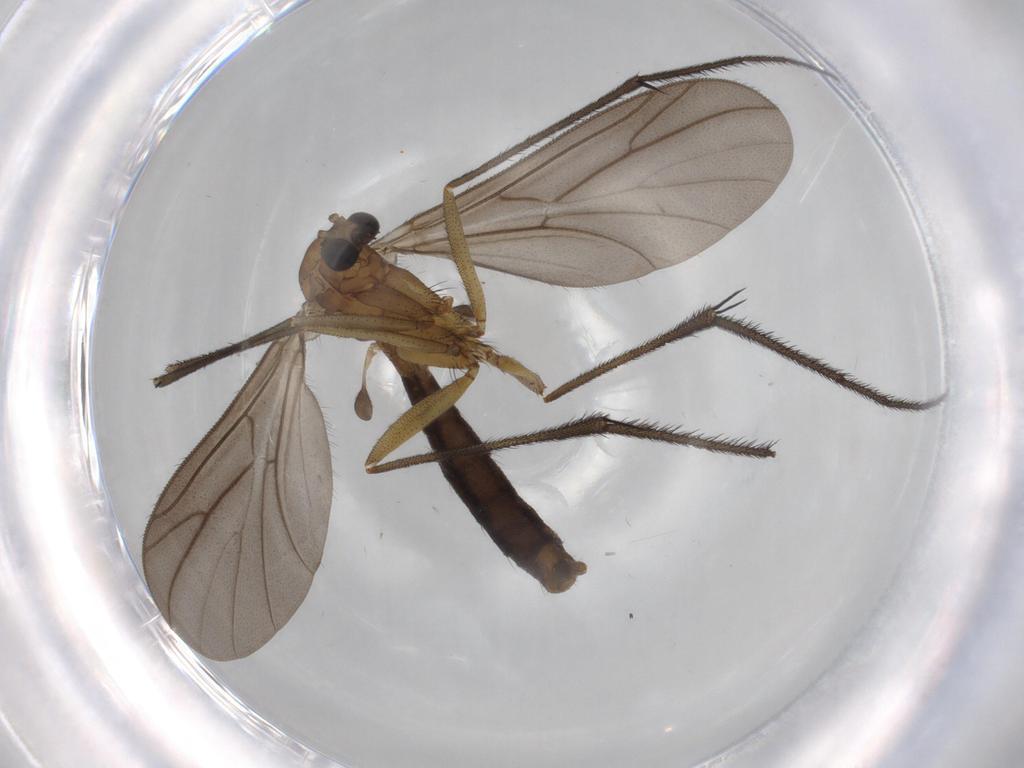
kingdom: Animalia
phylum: Arthropoda
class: Insecta
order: Diptera
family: Ditomyiidae
